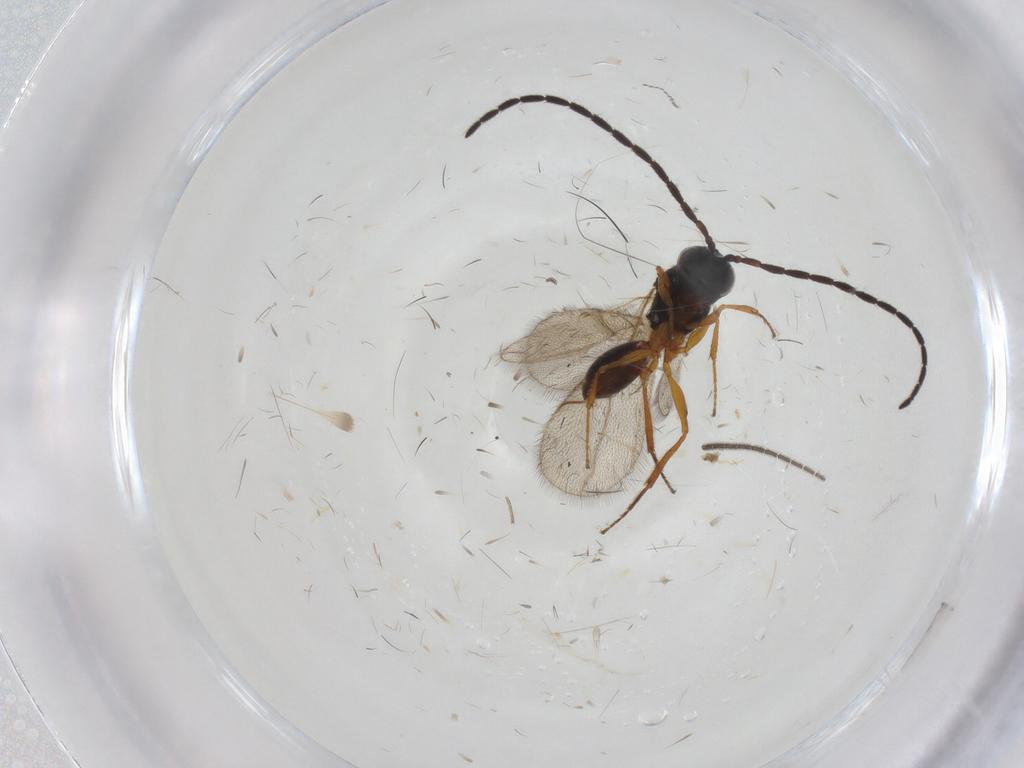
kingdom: Animalia
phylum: Arthropoda
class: Insecta
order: Hymenoptera
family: Figitidae
